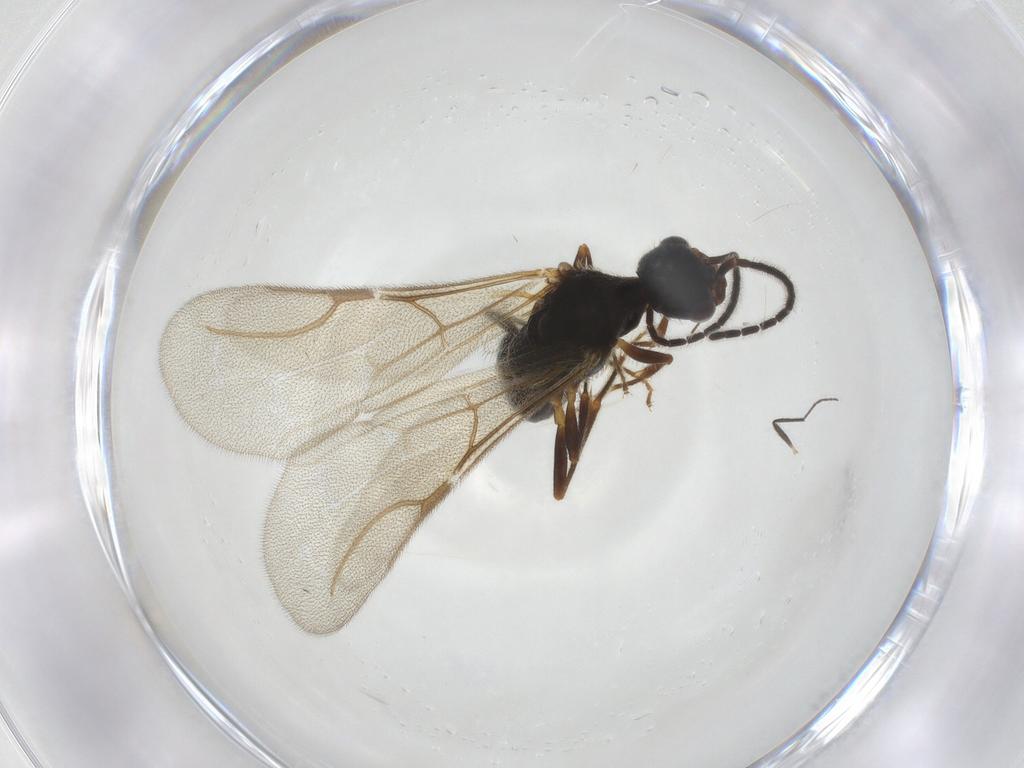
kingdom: Animalia
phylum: Arthropoda
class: Insecta
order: Hymenoptera
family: Bethylidae
